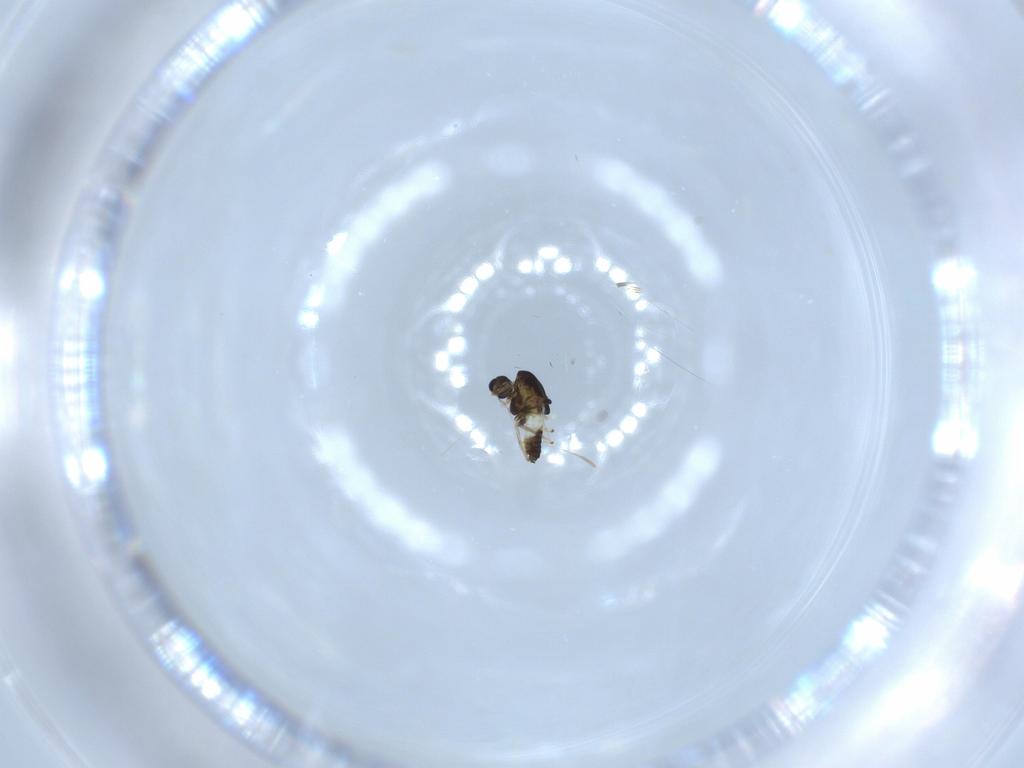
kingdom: Animalia
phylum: Arthropoda
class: Insecta
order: Diptera
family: Chironomidae
